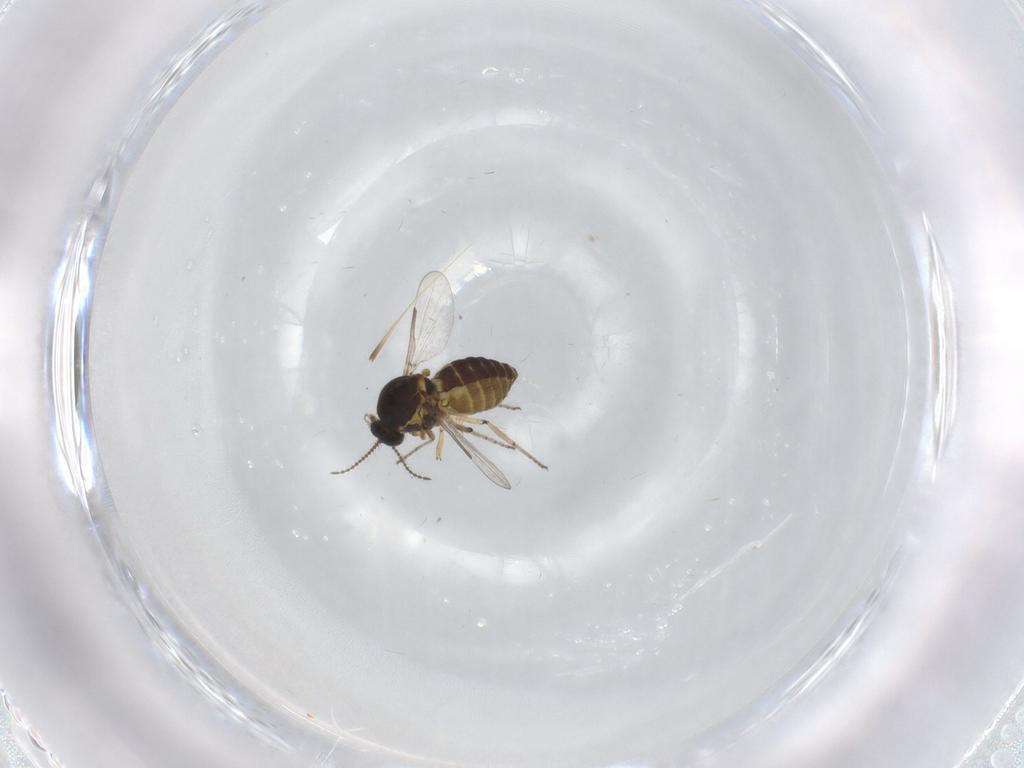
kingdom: Animalia
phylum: Arthropoda
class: Insecta
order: Diptera
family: Ceratopogonidae
